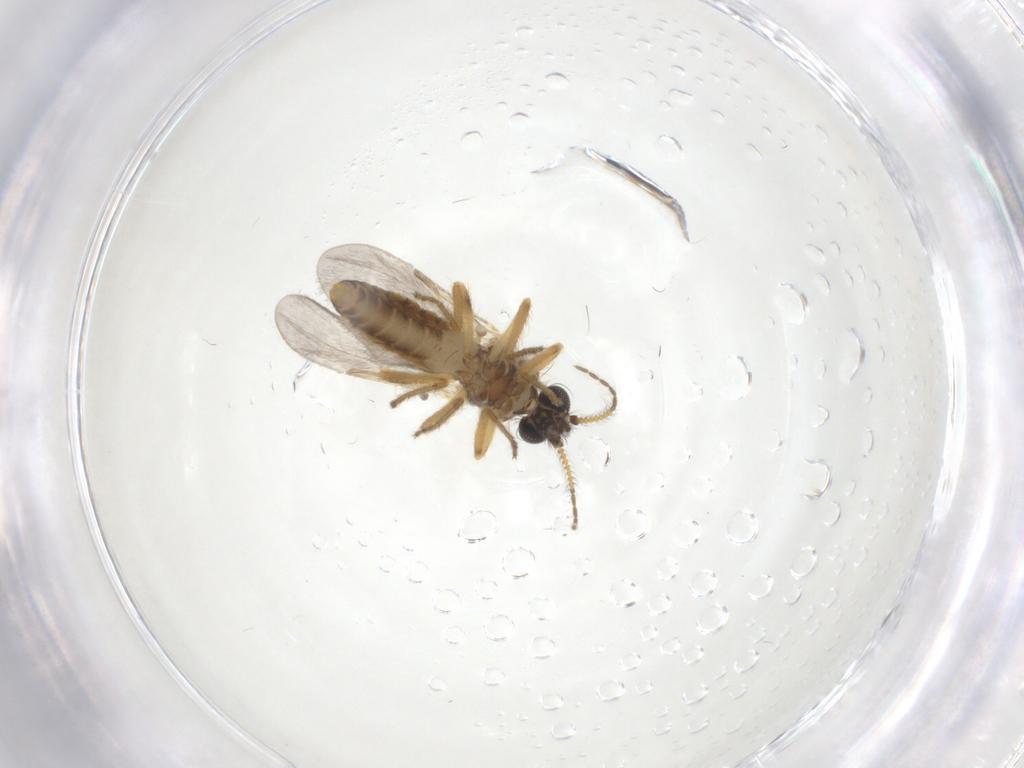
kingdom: Animalia
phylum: Arthropoda
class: Insecta
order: Diptera
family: Ceratopogonidae
